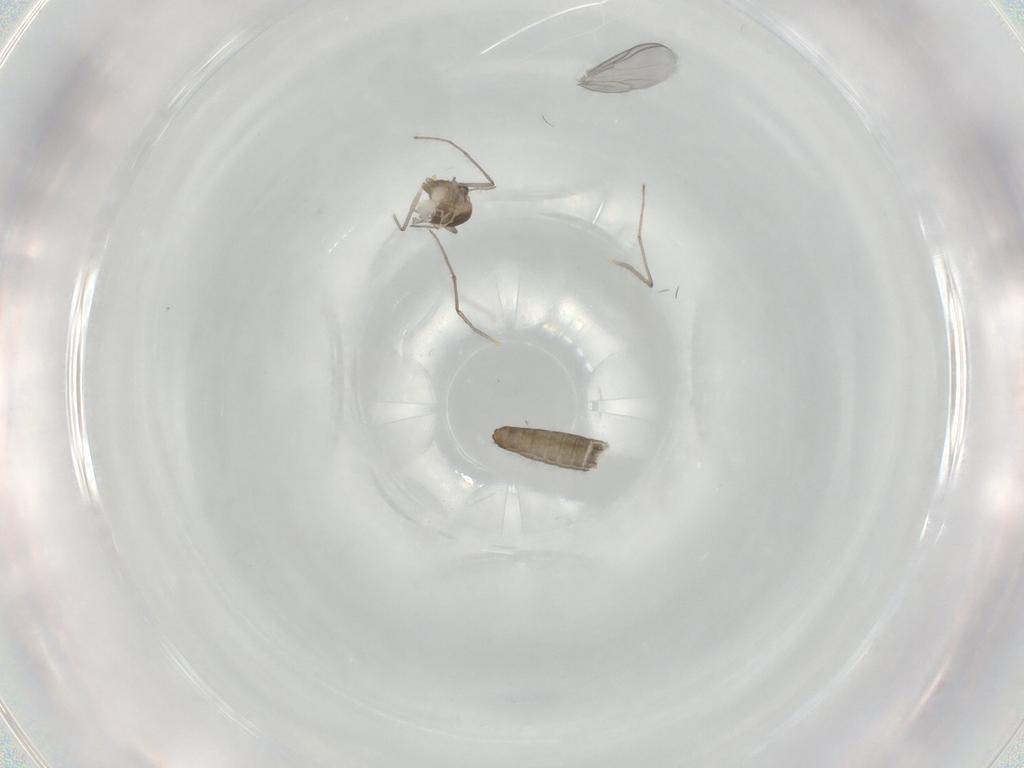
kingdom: Animalia
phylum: Arthropoda
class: Insecta
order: Diptera
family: Chironomidae
